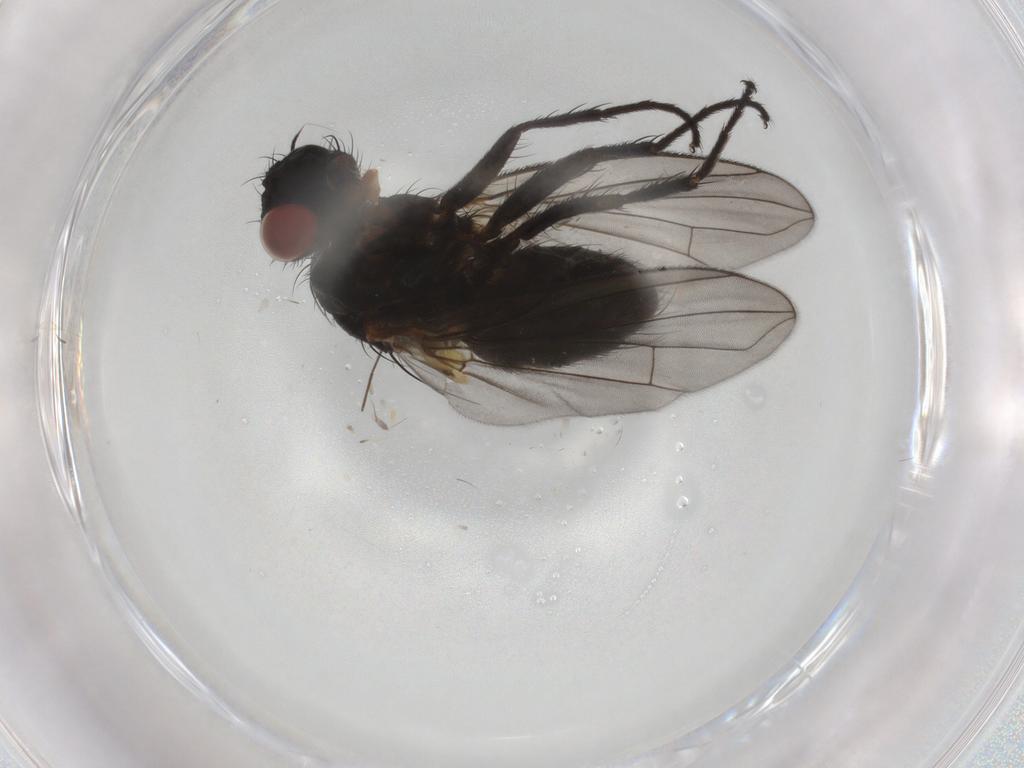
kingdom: Animalia
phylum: Arthropoda
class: Insecta
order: Diptera
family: Tachinidae
